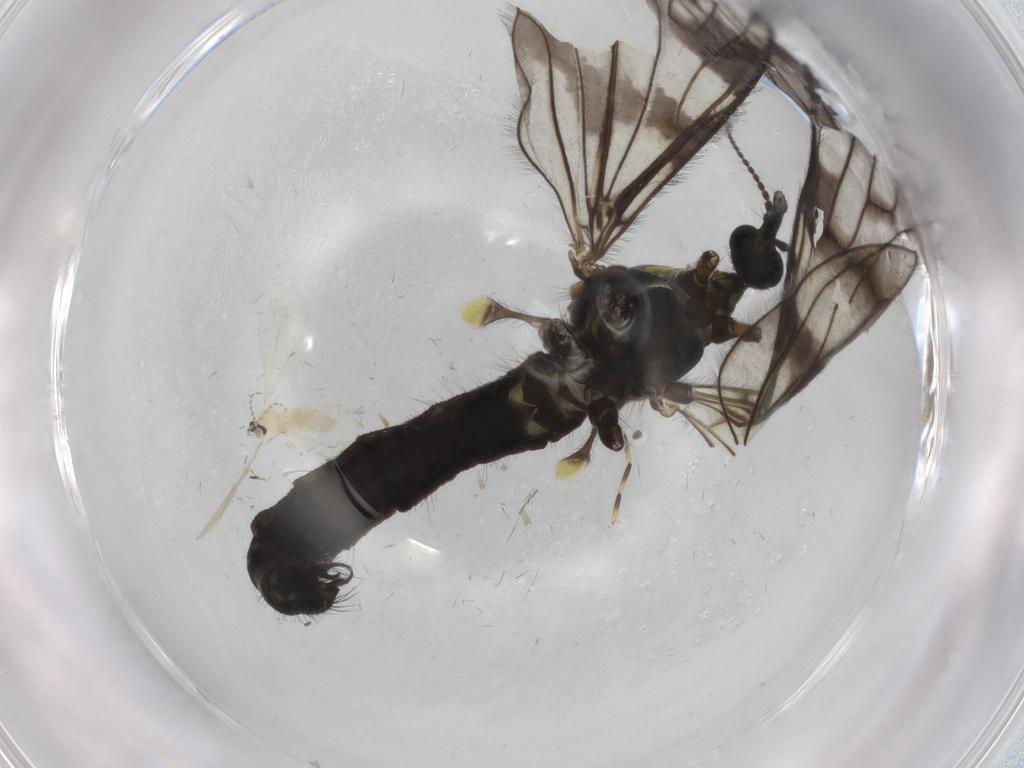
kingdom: Animalia
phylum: Arthropoda
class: Insecta
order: Diptera
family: Limoniidae
